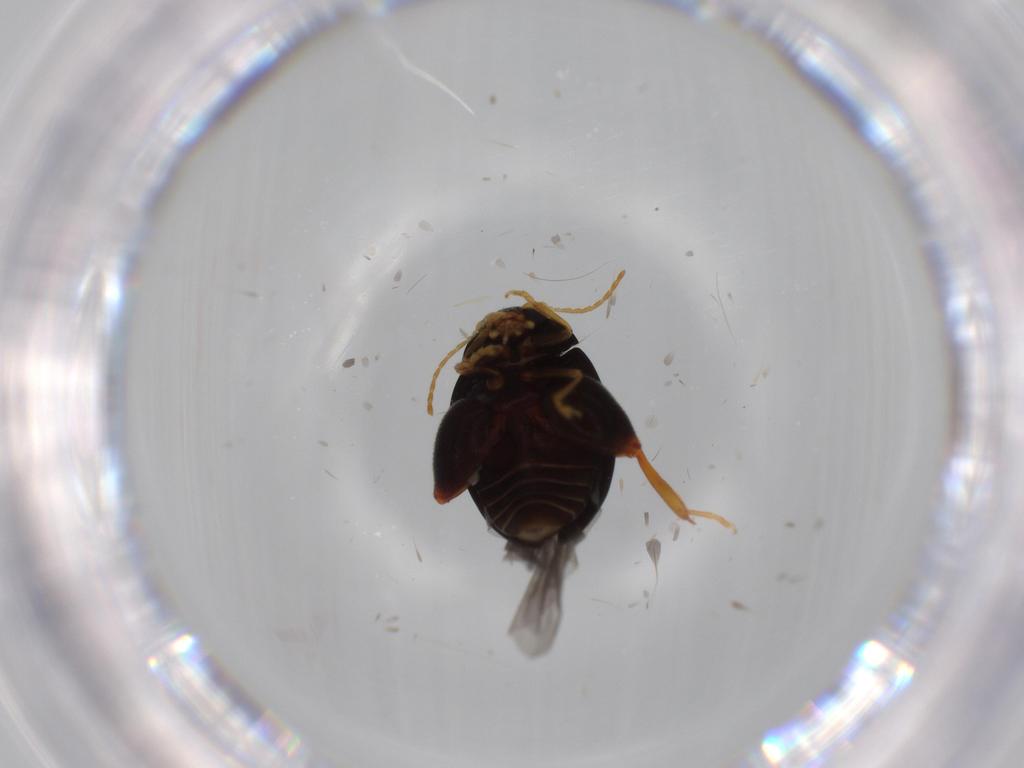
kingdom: Animalia
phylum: Arthropoda
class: Insecta
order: Coleoptera
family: Chrysomelidae
